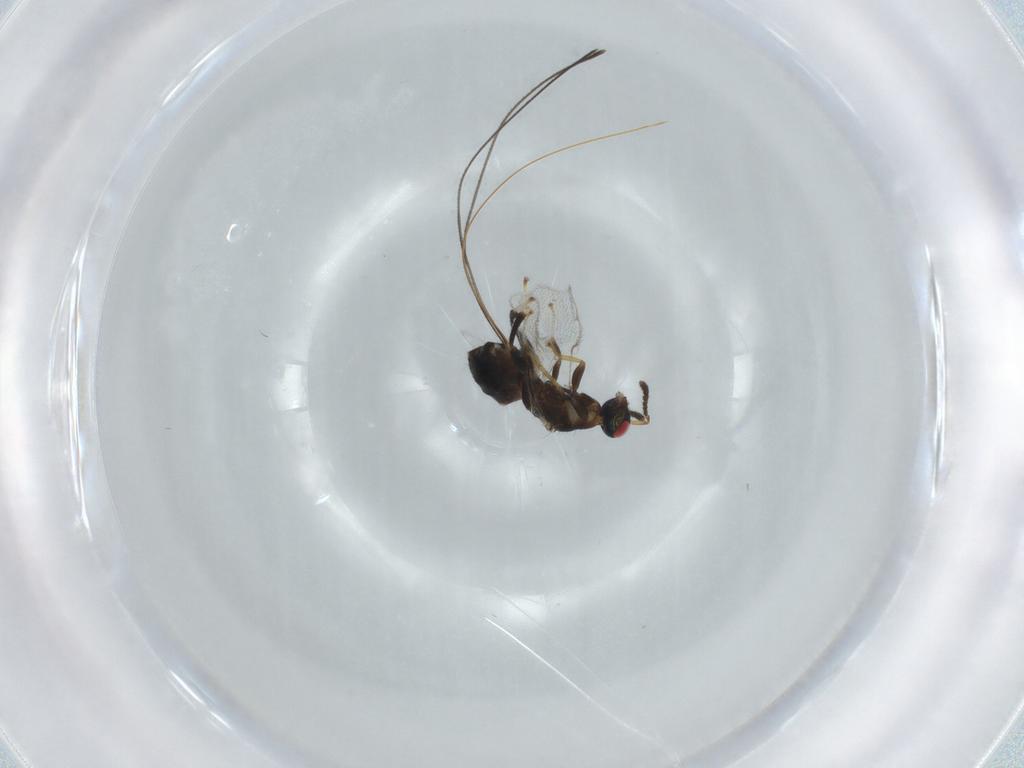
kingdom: Animalia
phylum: Arthropoda
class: Insecta
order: Hymenoptera
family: Torymidae
